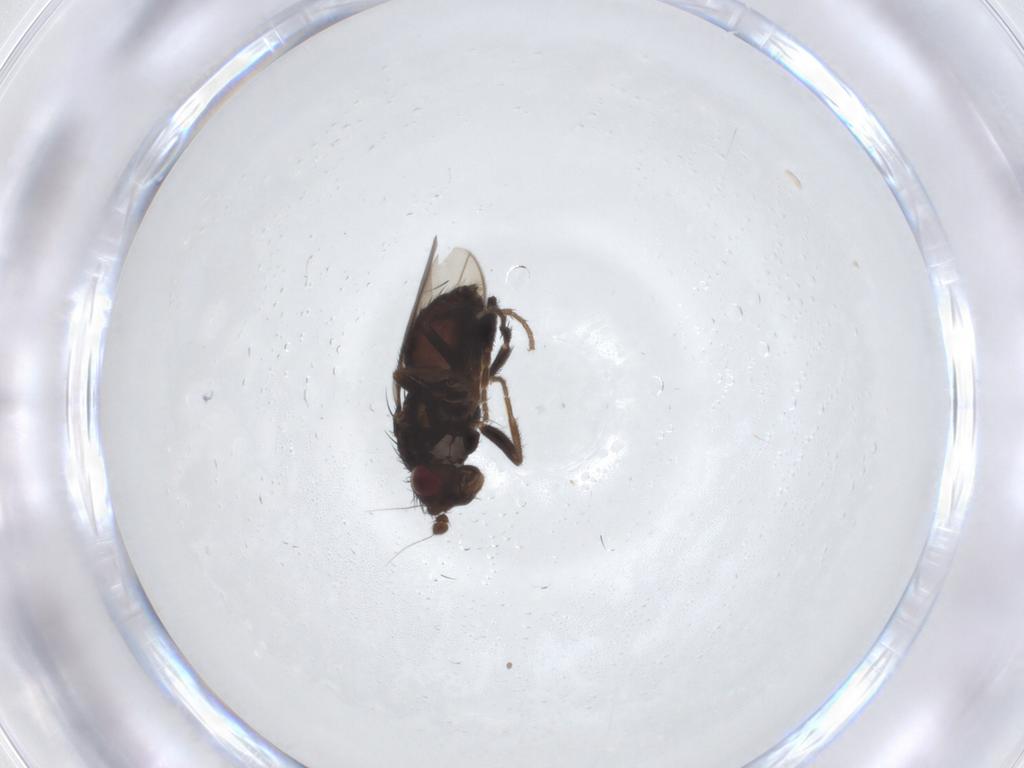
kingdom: Animalia
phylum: Arthropoda
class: Insecta
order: Diptera
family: Sphaeroceridae
